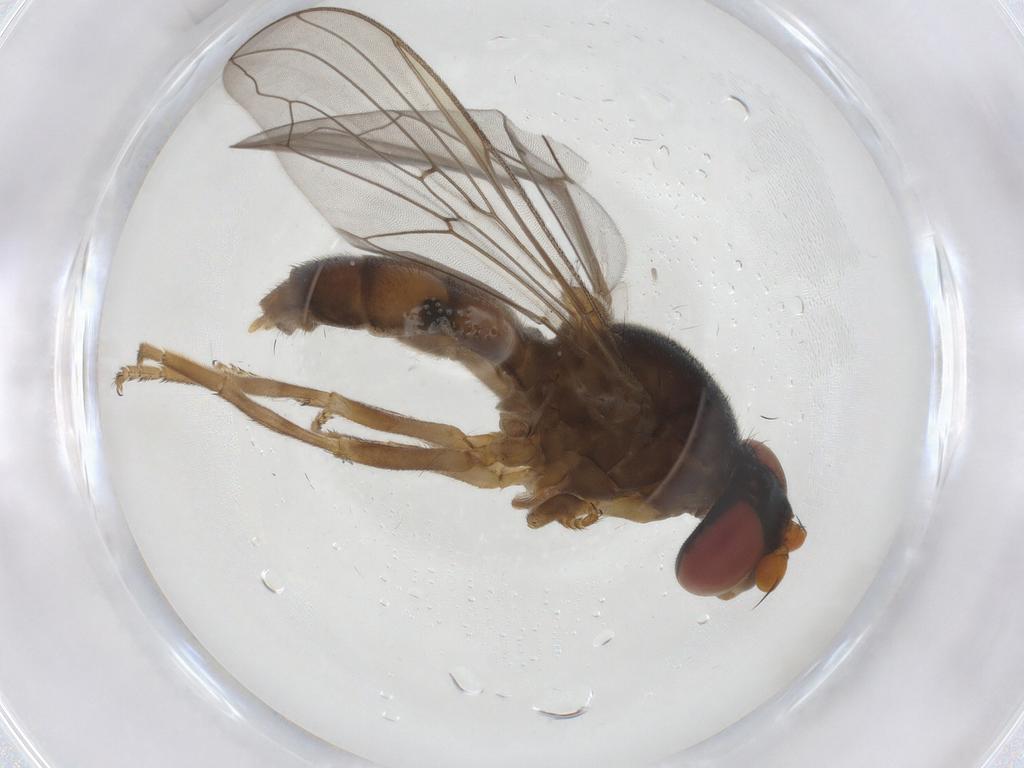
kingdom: Animalia
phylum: Arthropoda
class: Insecta
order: Diptera
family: Syrphidae
